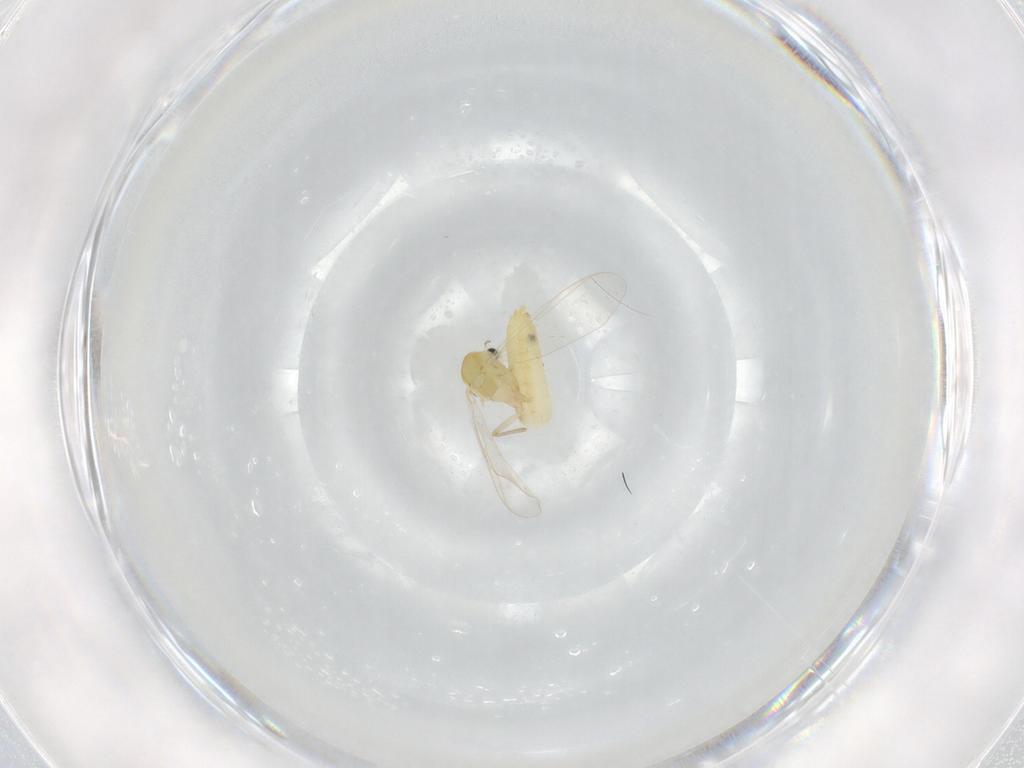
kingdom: Animalia
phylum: Arthropoda
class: Insecta
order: Diptera
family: Chironomidae
